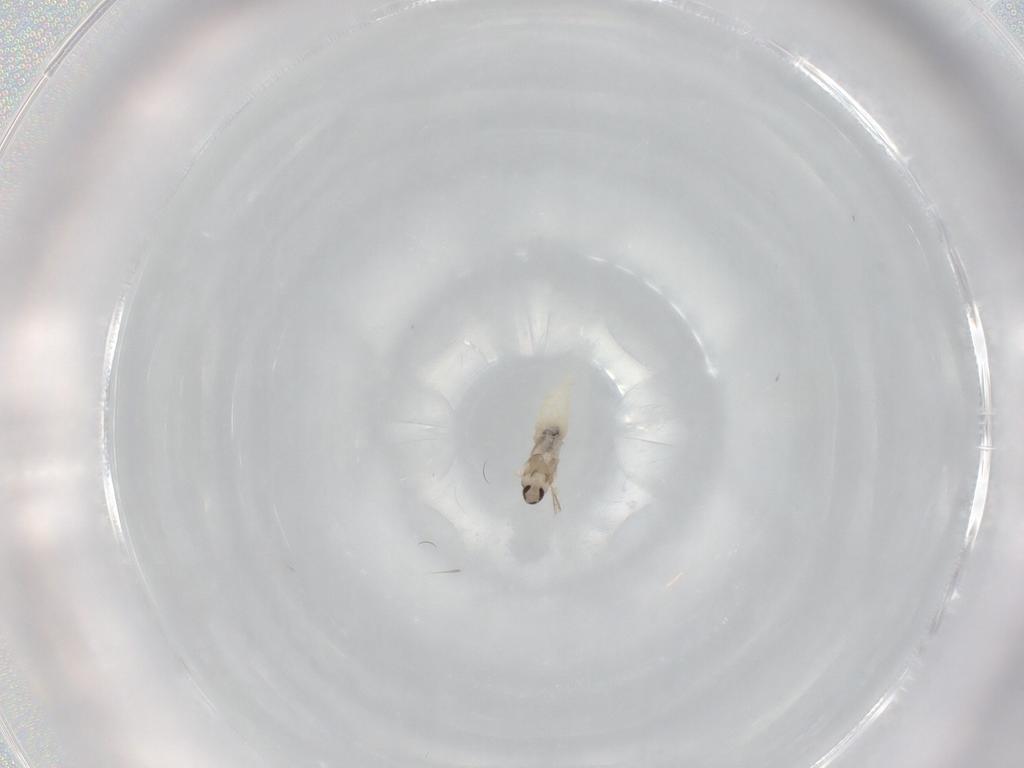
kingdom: Animalia
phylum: Arthropoda
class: Insecta
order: Diptera
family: Cecidomyiidae
